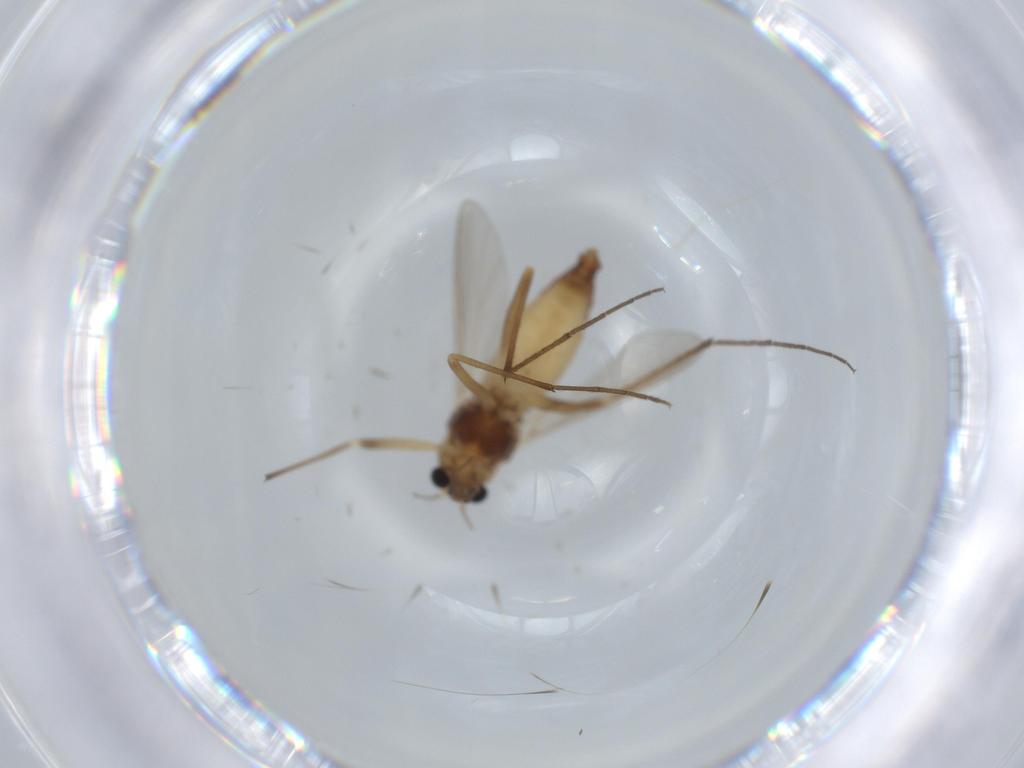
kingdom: Animalia
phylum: Arthropoda
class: Insecta
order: Diptera
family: Chironomidae
